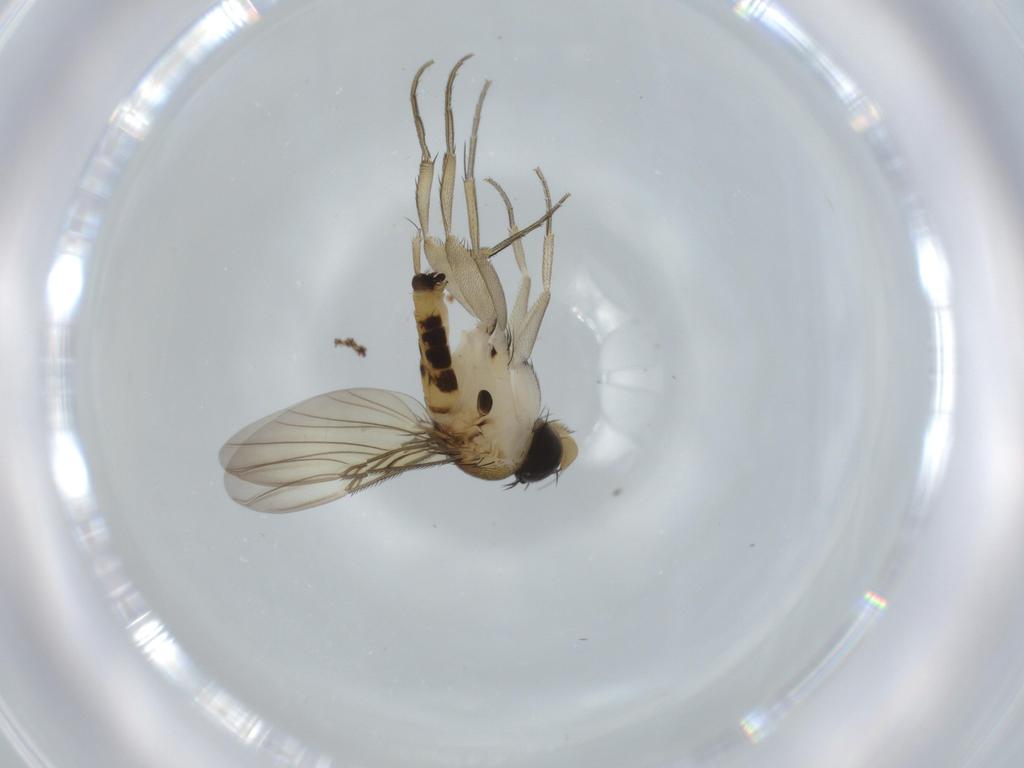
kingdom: Animalia
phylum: Arthropoda
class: Insecta
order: Diptera
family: Phoridae
